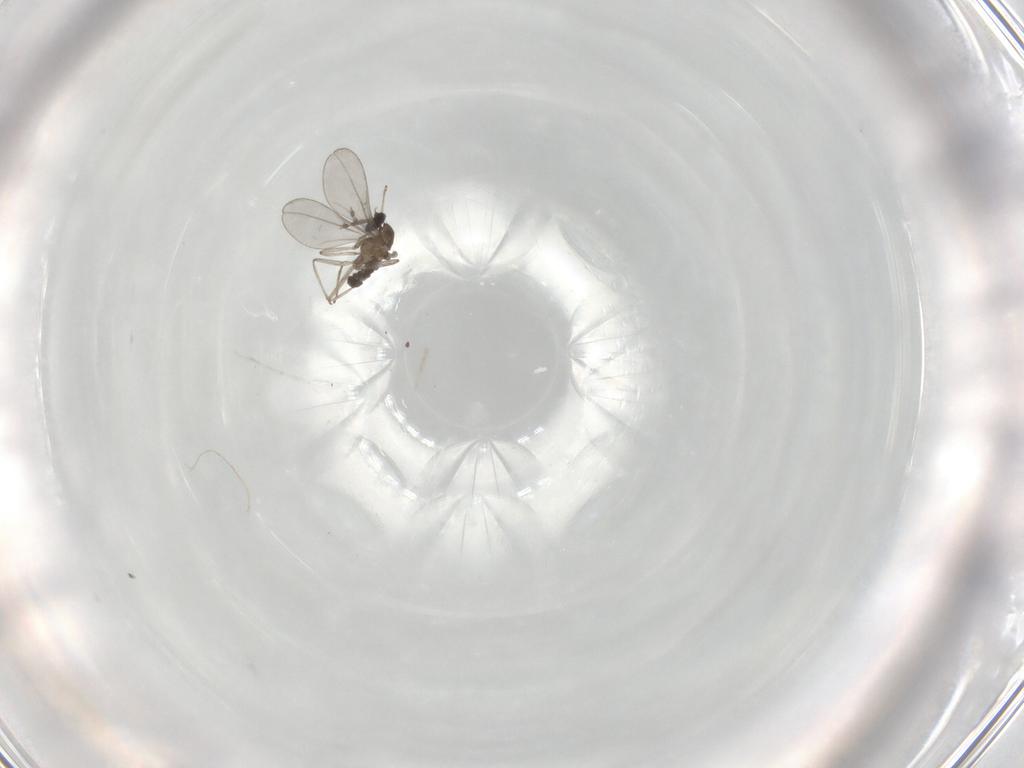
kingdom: Animalia
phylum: Arthropoda
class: Insecta
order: Diptera
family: Cecidomyiidae
